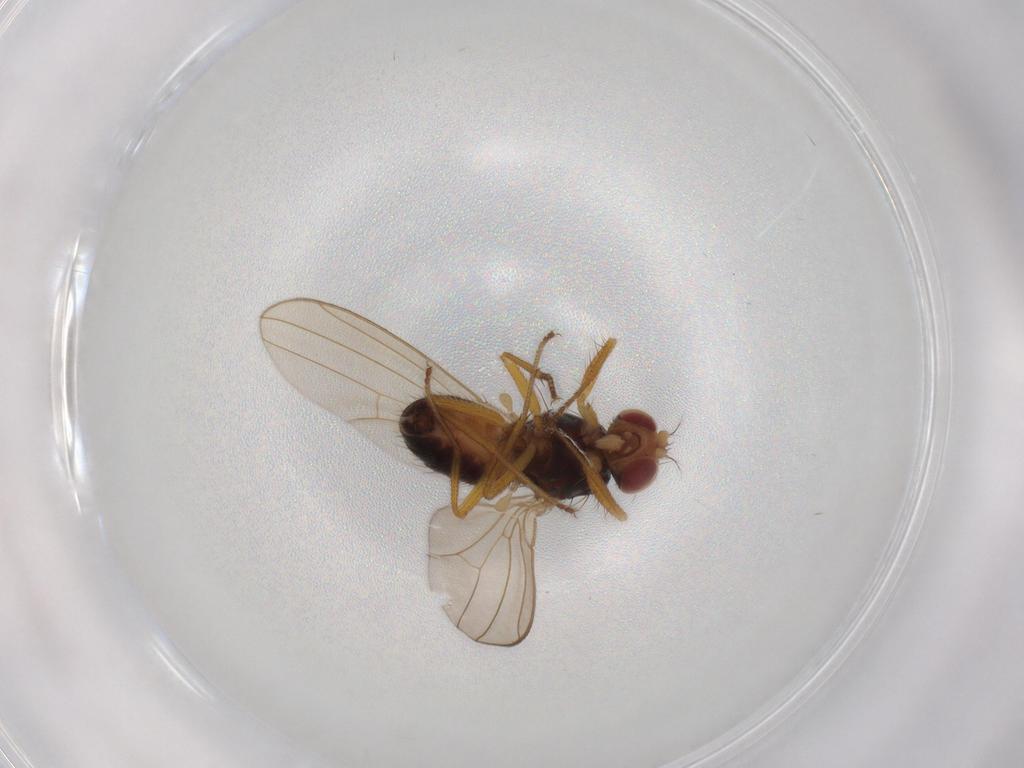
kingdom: Animalia
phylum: Arthropoda
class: Insecta
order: Diptera
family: Drosophilidae
